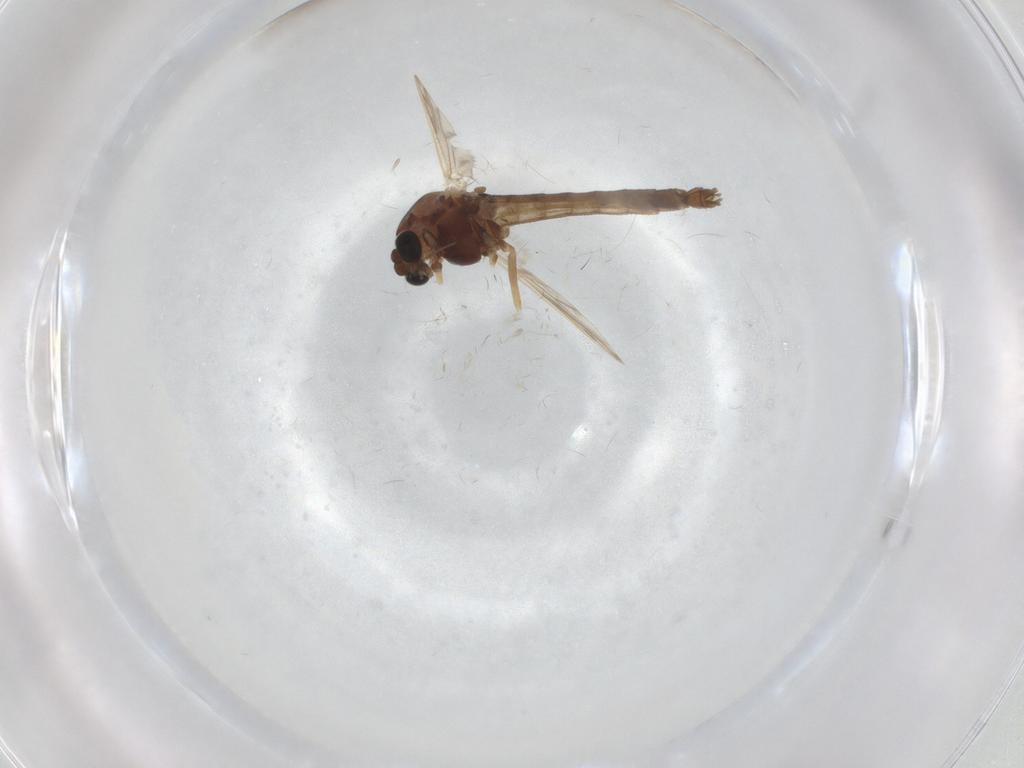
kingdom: Animalia
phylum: Arthropoda
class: Insecta
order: Diptera
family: Chironomidae
